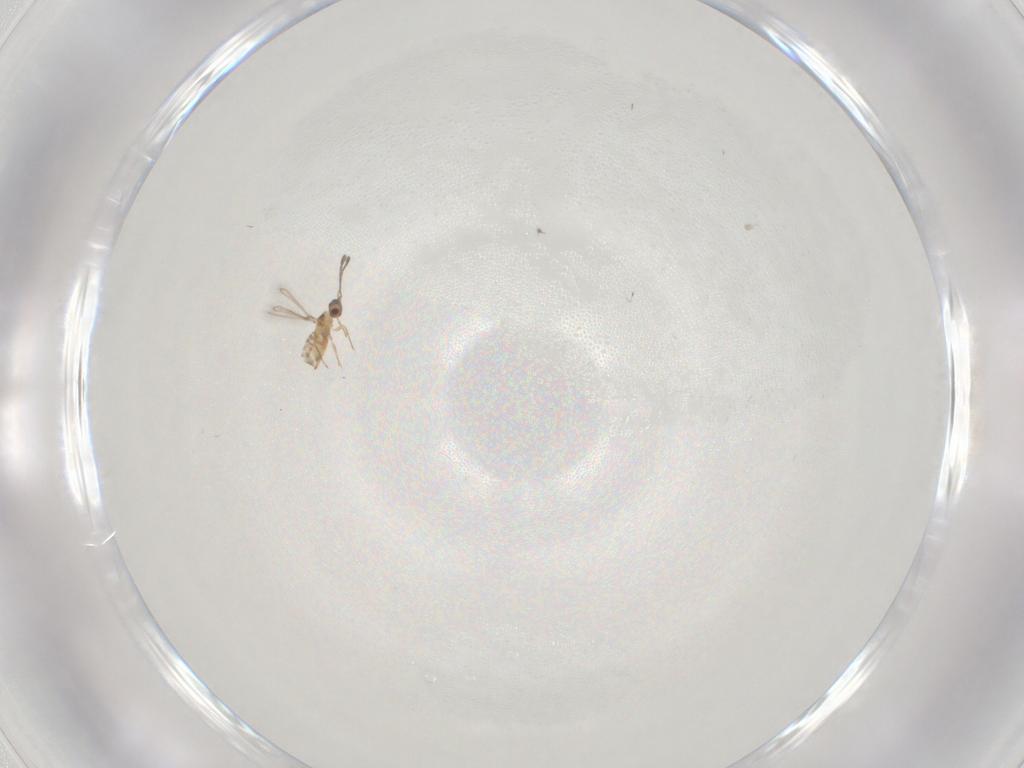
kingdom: Animalia
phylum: Arthropoda
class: Insecta
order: Hymenoptera
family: Mymaridae
